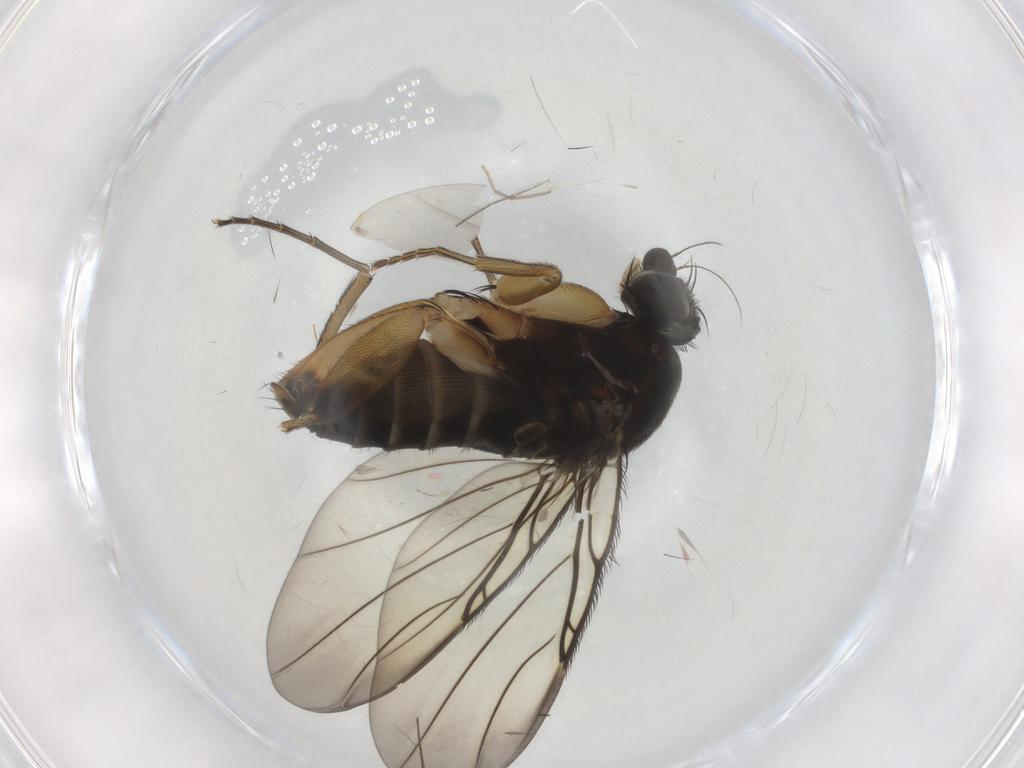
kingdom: Animalia
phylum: Arthropoda
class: Insecta
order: Diptera
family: Phoridae
